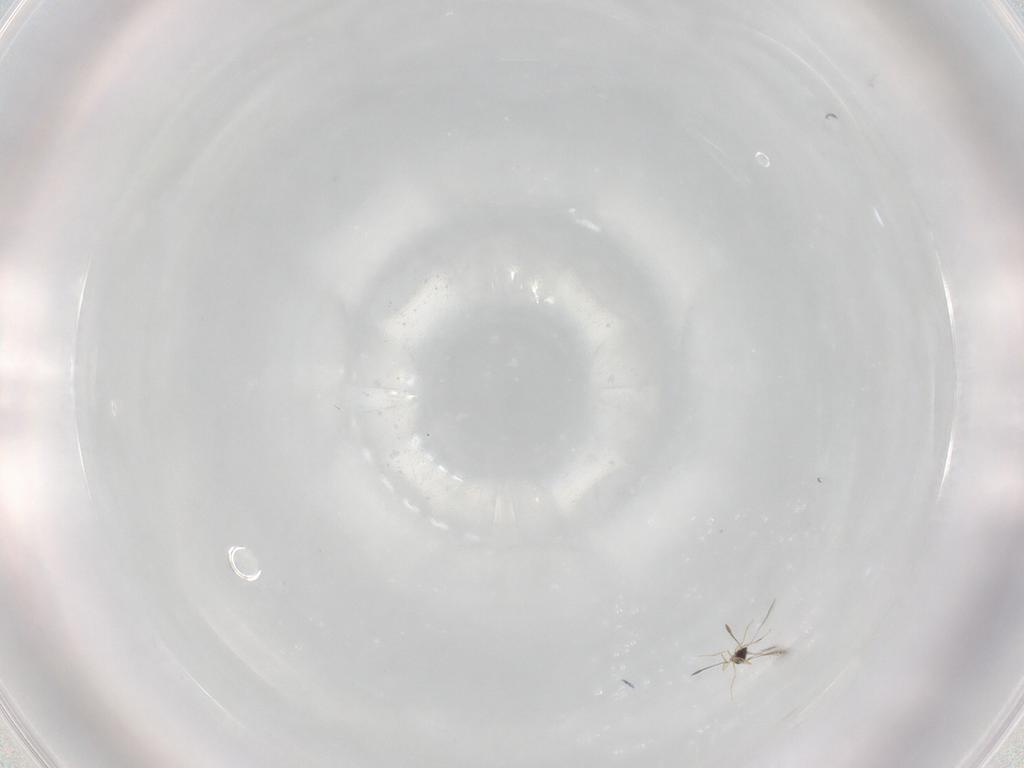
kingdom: Animalia
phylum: Arthropoda
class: Insecta
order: Hymenoptera
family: Mymaridae
